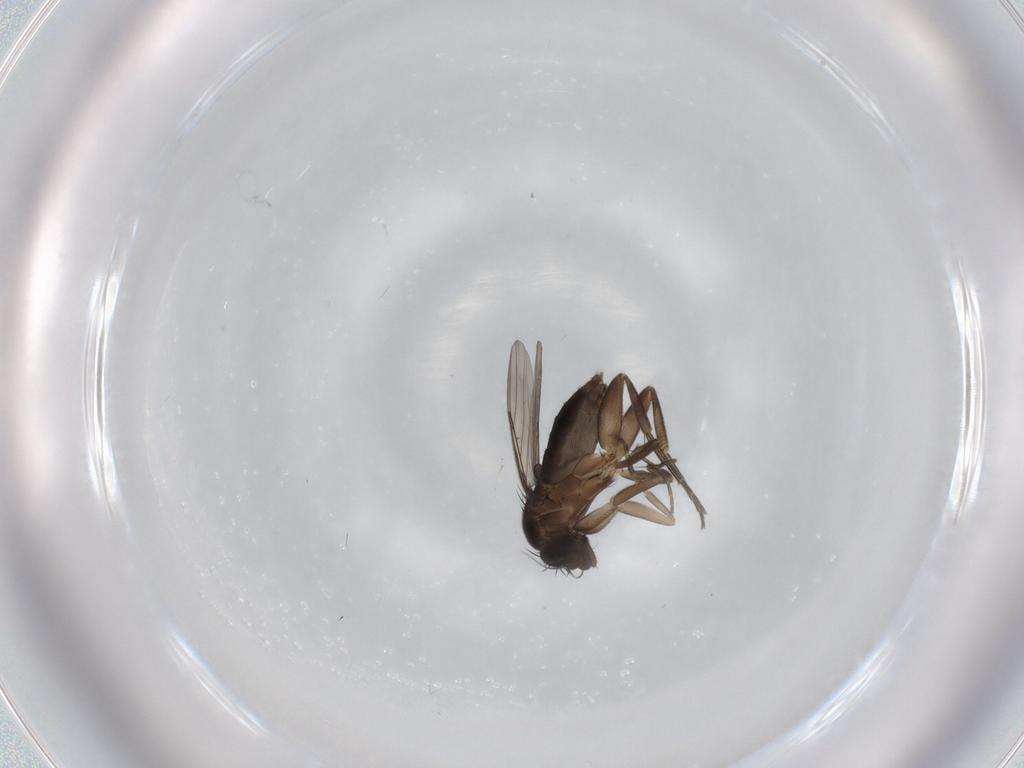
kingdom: Animalia
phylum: Arthropoda
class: Insecta
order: Diptera
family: Phoridae
